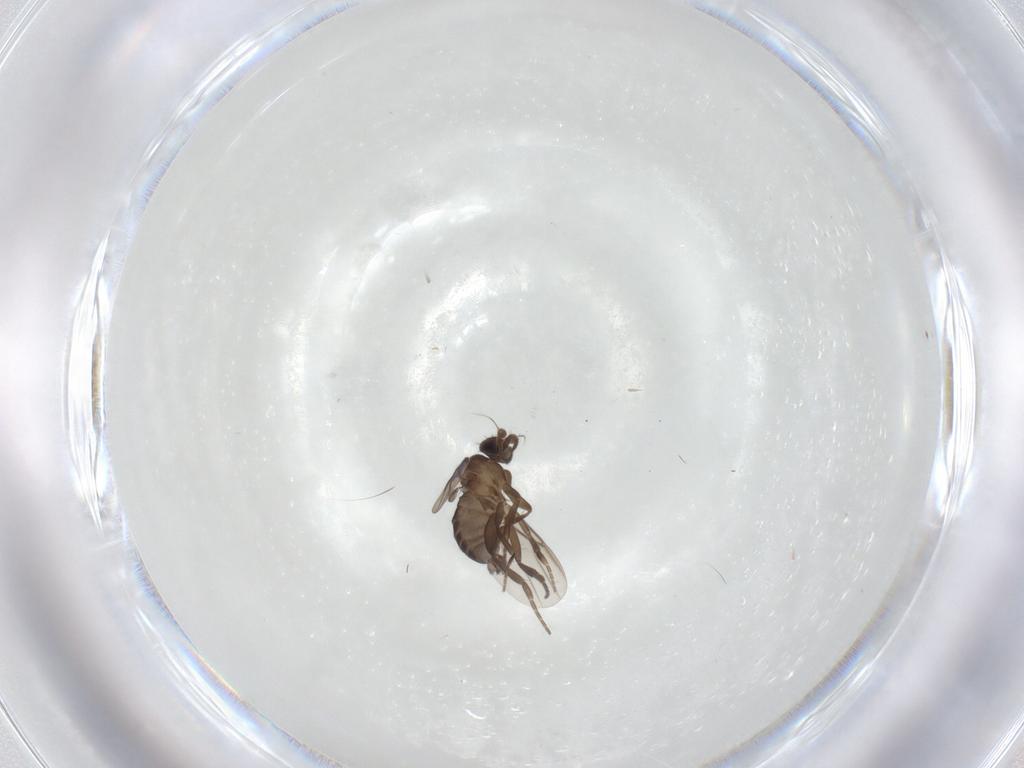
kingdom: Animalia
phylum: Arthropoda
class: Insecta
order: Diptera
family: Phoridae
